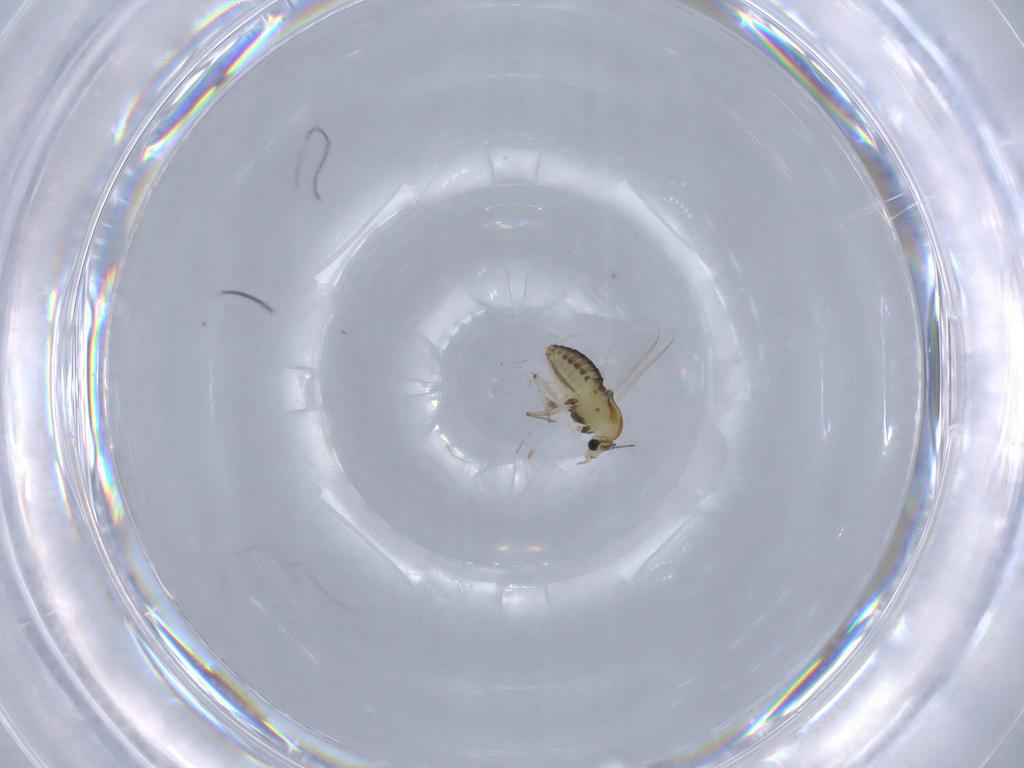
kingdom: Animalia
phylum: Arthropoda
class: Insecta
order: Diptera
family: Chironomidae
